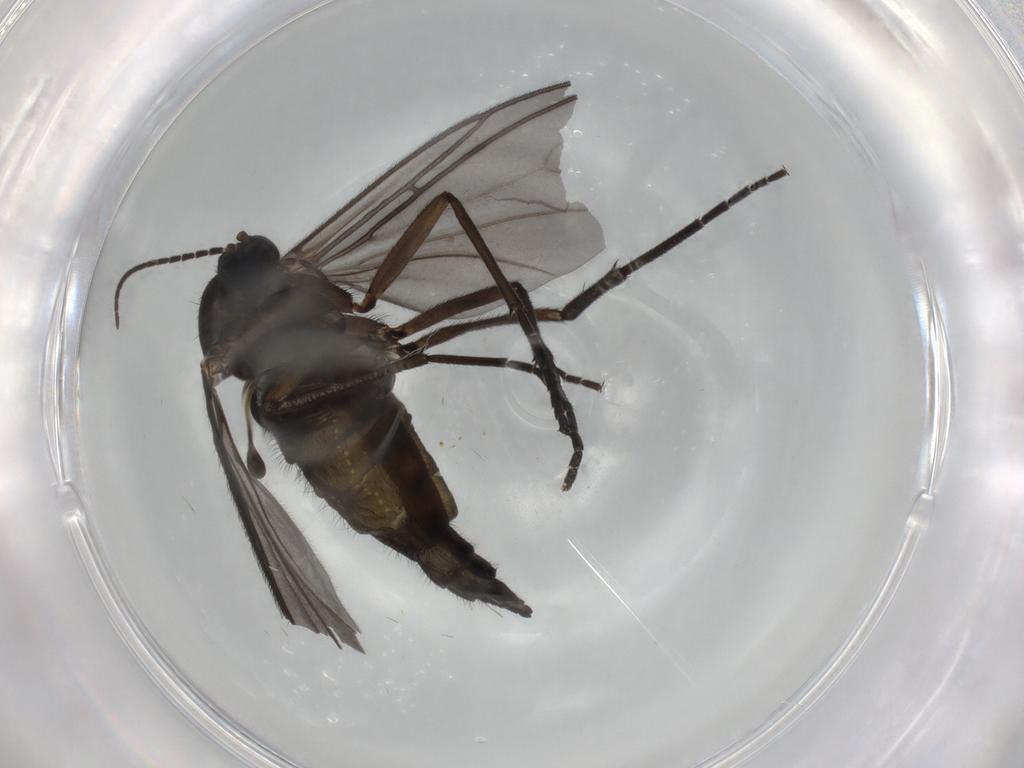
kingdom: Animalia
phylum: Arthropoda
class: Insecta
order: Diptera
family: Sciaridae
